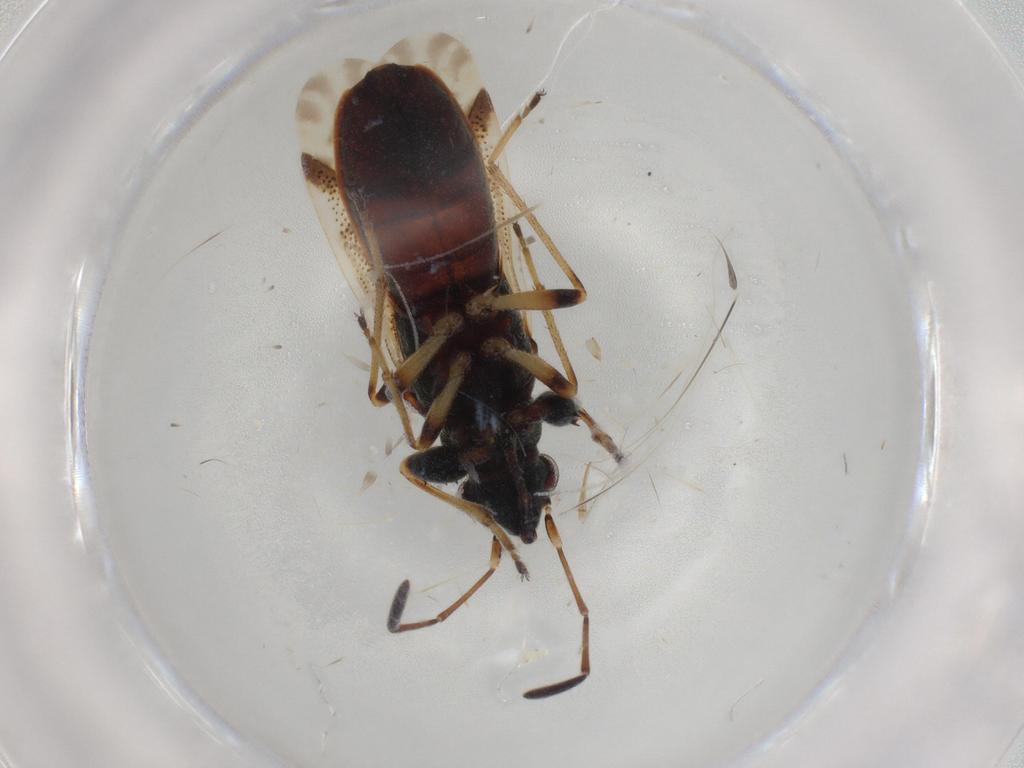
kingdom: Animalia
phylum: Arthropoda
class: Insecta
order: Hemiptera
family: Rhyparochromidae
